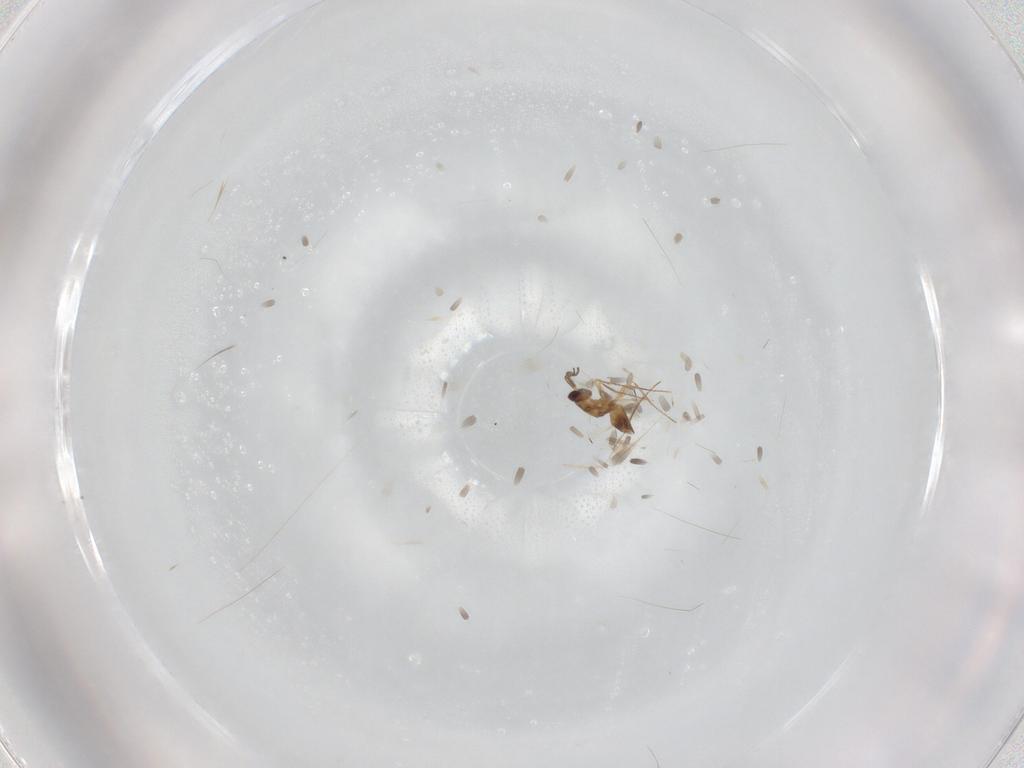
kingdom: Animalia
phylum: Arthropoda
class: Insecta
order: Hymenoptera
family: Mymaridae
